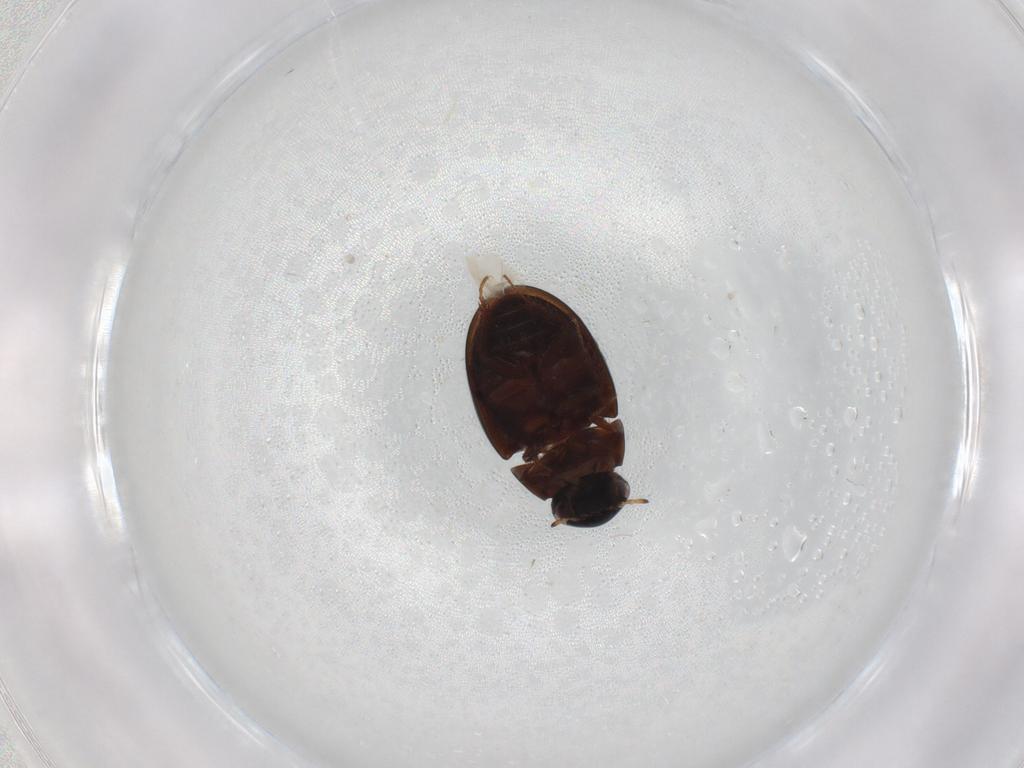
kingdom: Animalia
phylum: Arthropoda
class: Insecta
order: Coleoptera
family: Hydrophilidae
